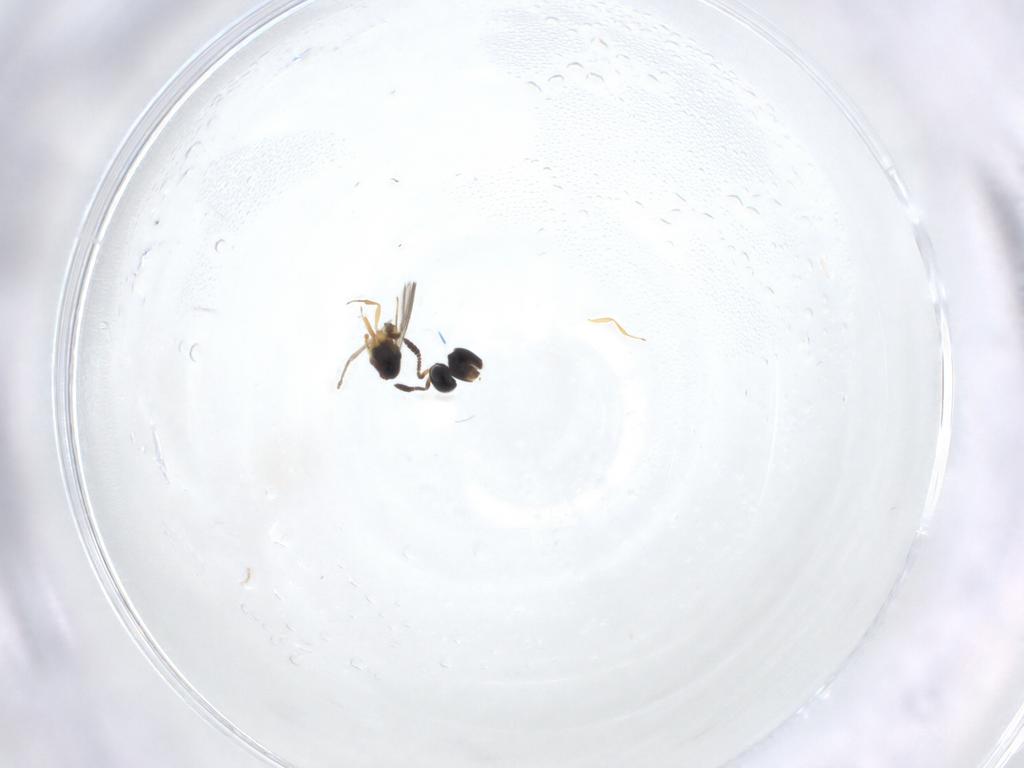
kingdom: Animalia
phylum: Arthropoda
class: Insecta
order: Hymenoptera
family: Scelionidae
